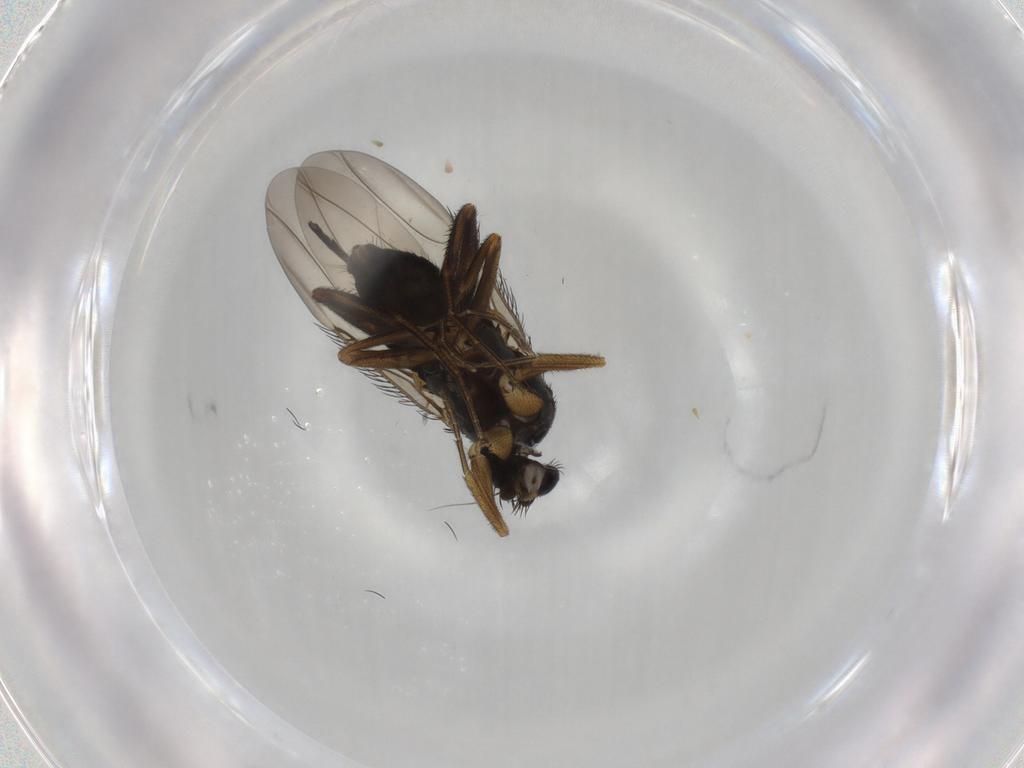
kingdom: Animalia
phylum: Arthropoda
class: Insecta
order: Diptera
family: Phoridae
